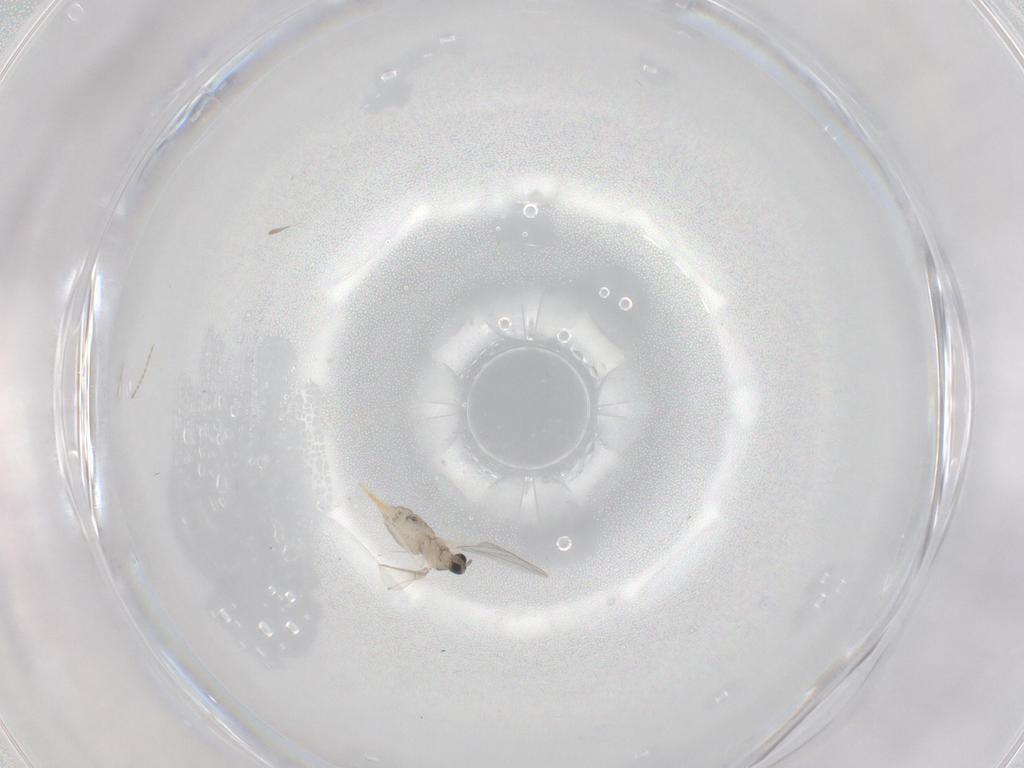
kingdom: Animalia
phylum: Arthropoda
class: Insecta
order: Diptera
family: Cecidomyiidae
